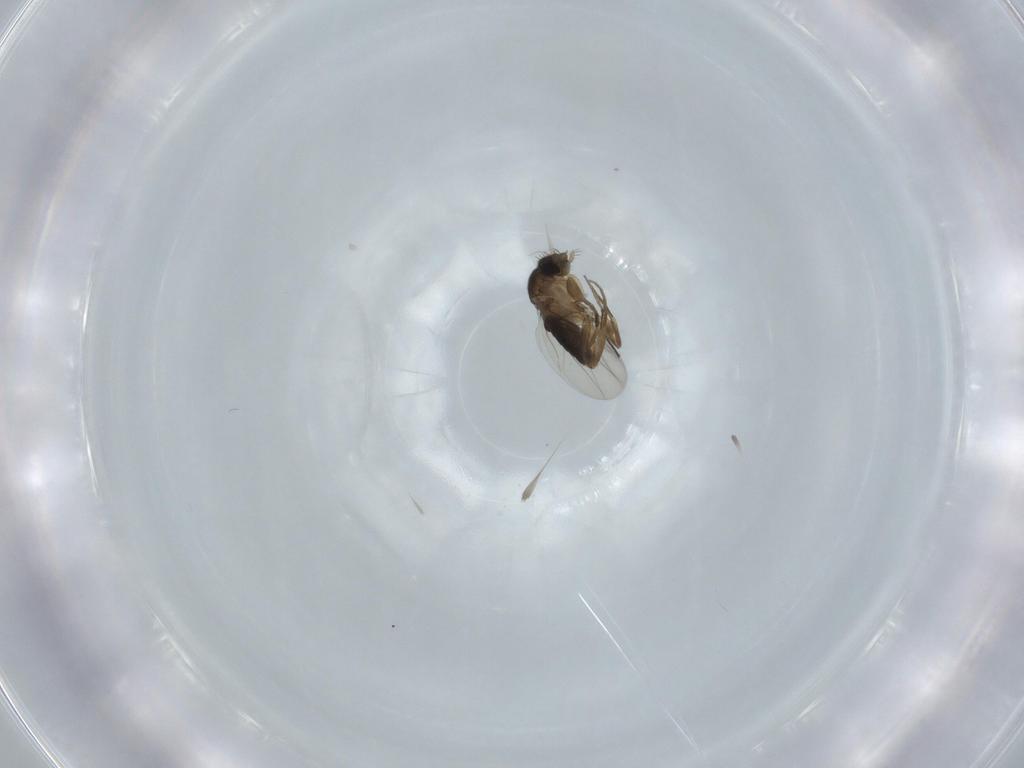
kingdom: Animalia
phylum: Arthropoda
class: Insecta
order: Diptera
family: Phoridae
